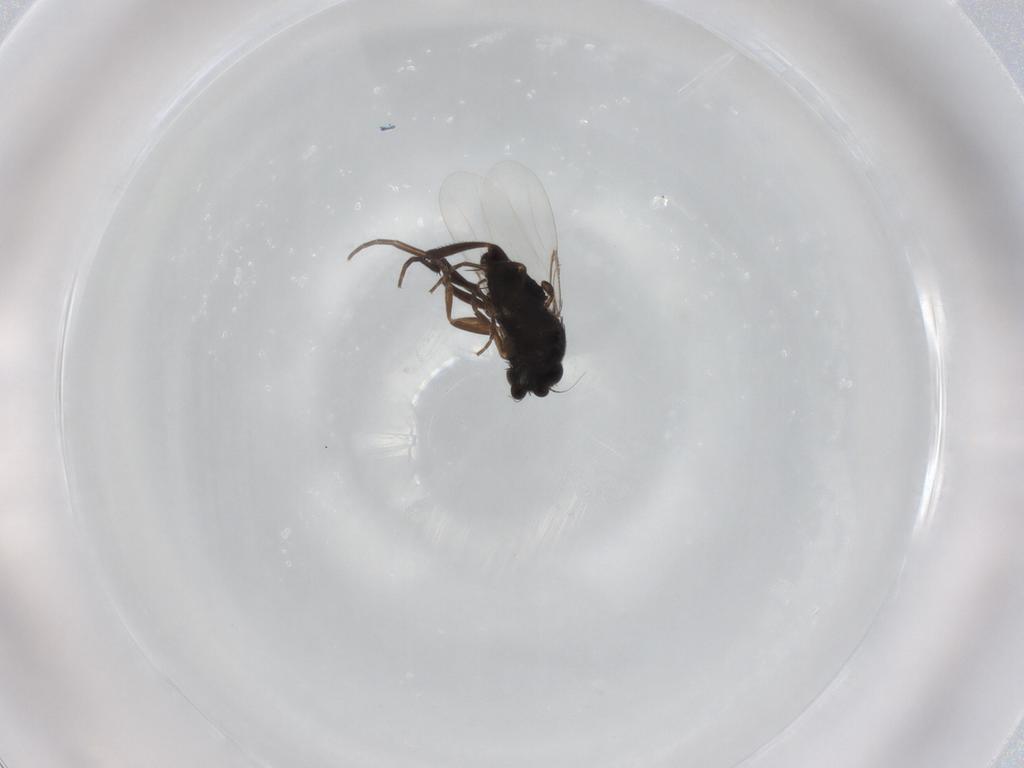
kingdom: Animalia
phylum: Arthropoda
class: Insecta
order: Diptera
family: Phoridae
